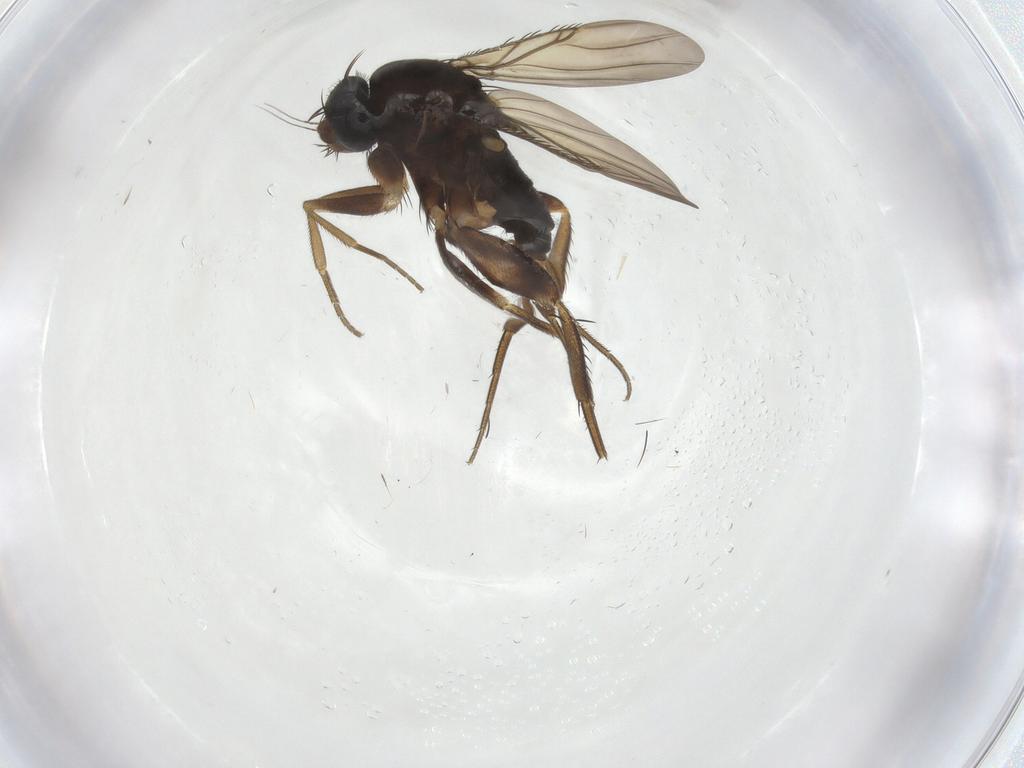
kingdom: Animalia
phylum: Arthropoda
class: Insecta
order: Diptera
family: Phoridae
